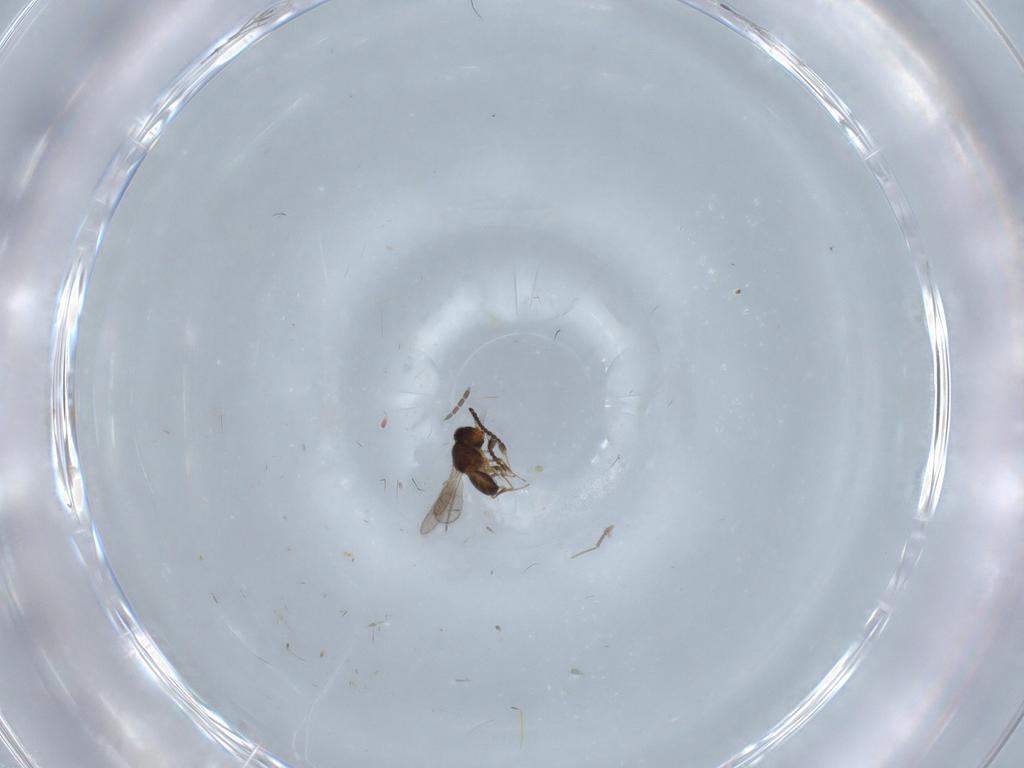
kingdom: Animalia
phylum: Arthropoda
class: Insecta
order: Hymenoptera
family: Scelionidae
